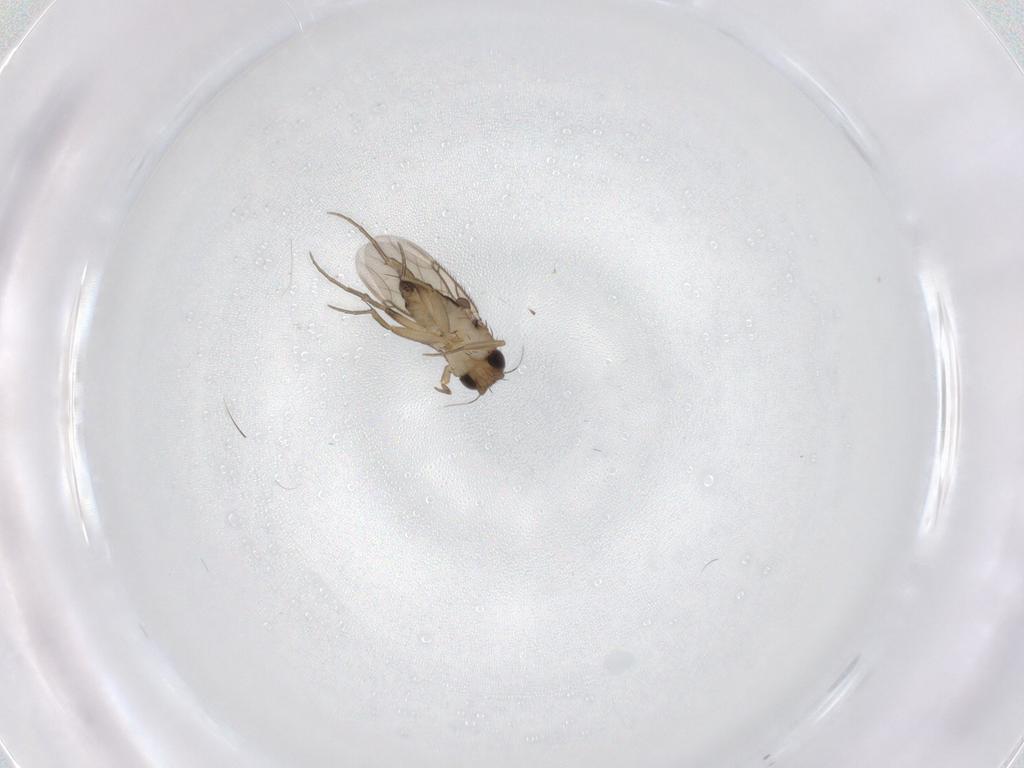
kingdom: Animalia
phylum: Arthropoda
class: Insecta
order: Diptera
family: Phoridae
